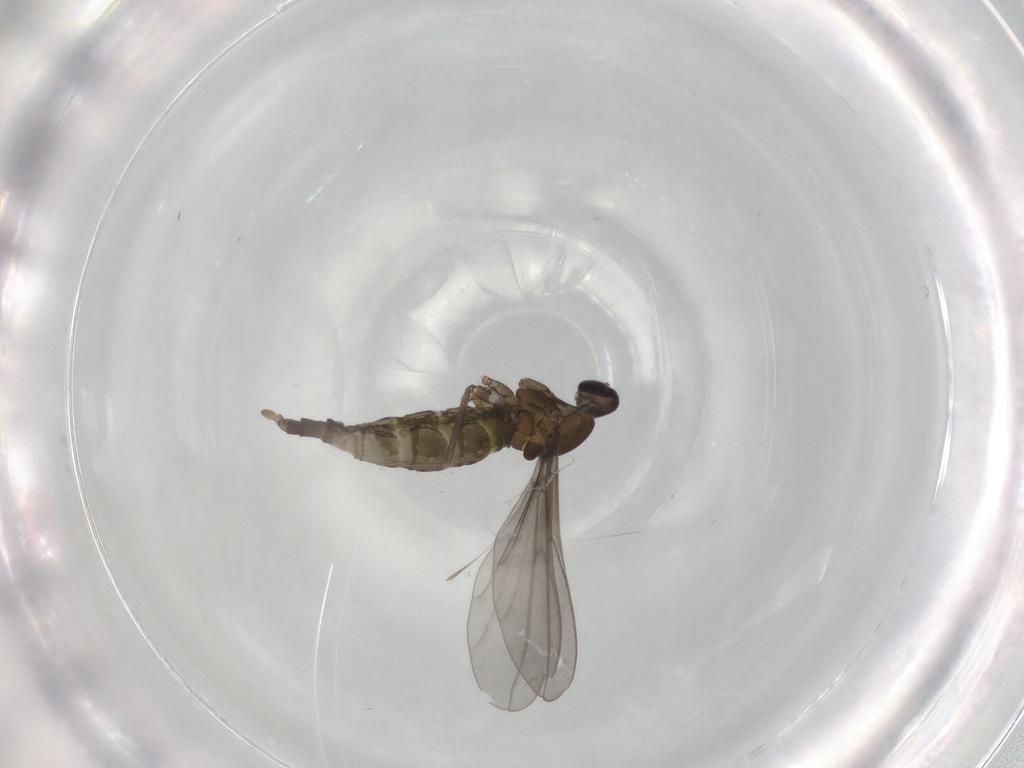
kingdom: Animalia
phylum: Arthropoda
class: Insecta
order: Diptera
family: Cecidomyiidae
